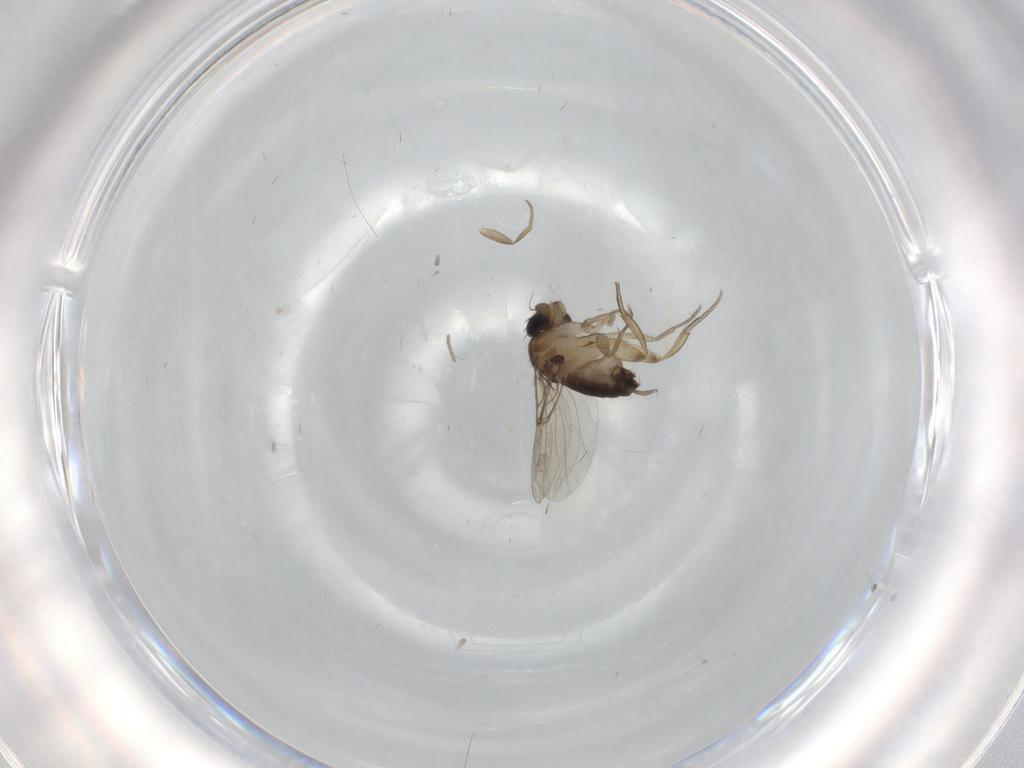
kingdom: Animalia
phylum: Arthropoda
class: Insecta
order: Diptera
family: Phoridae
